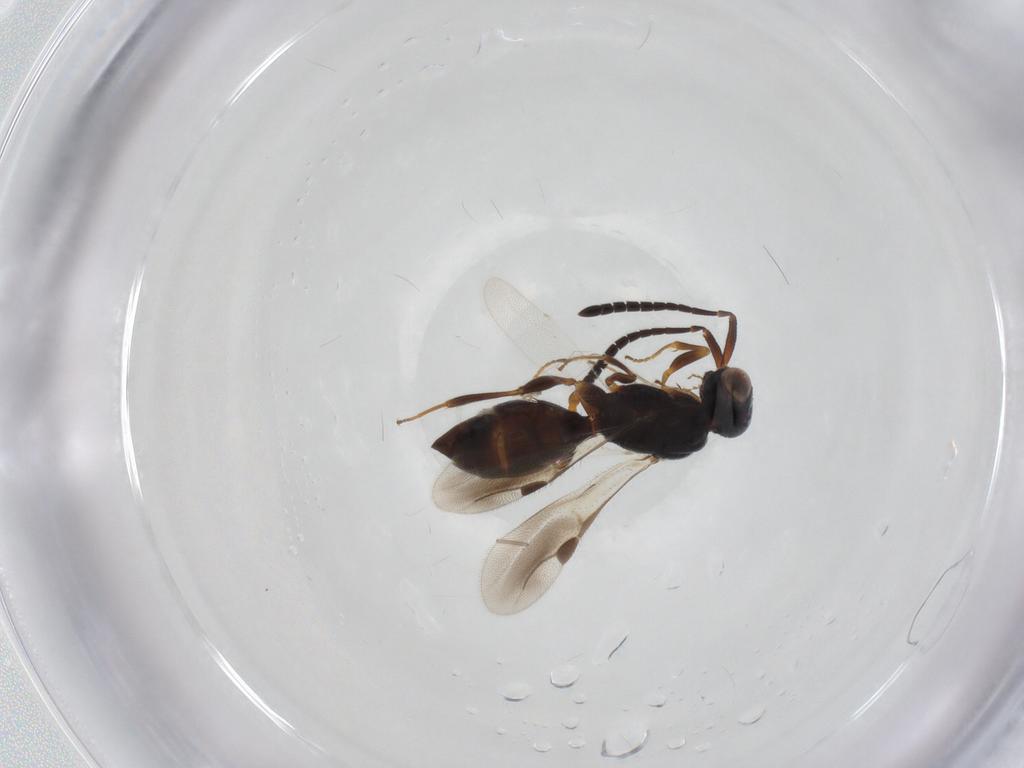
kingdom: Animalia
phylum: Arthropoda
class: Insecta
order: Hymenoptera
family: Megaspilidae
